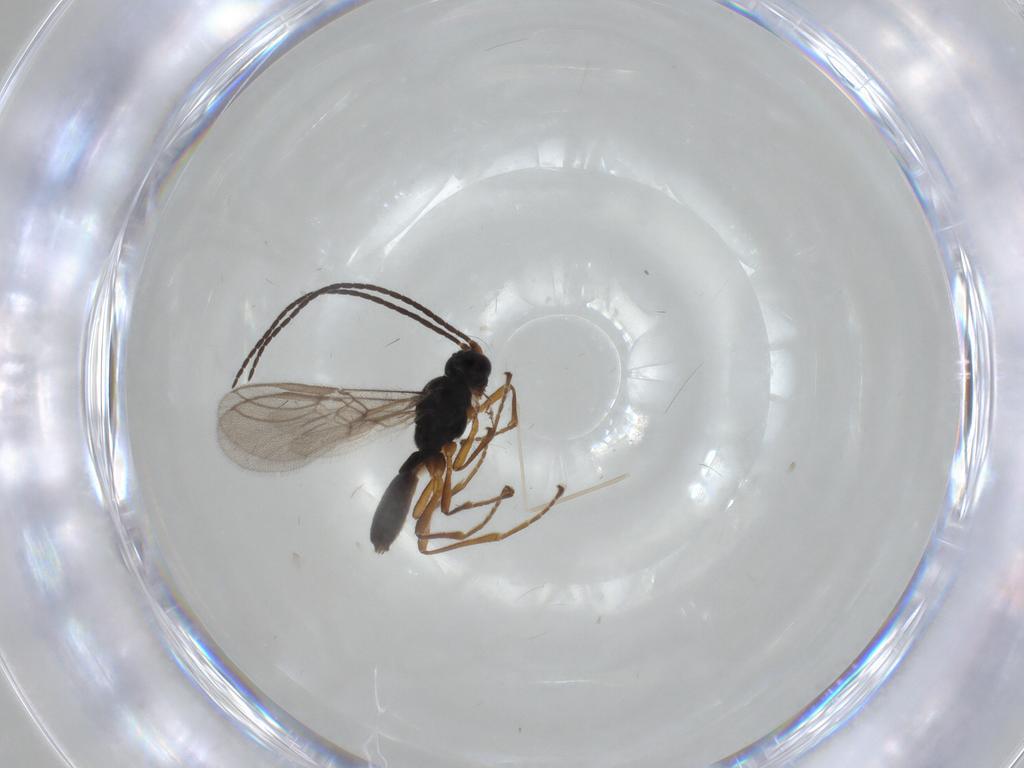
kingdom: Animalia
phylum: Arthropoda
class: Insecta
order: Hymenoptera
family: Braconidae
